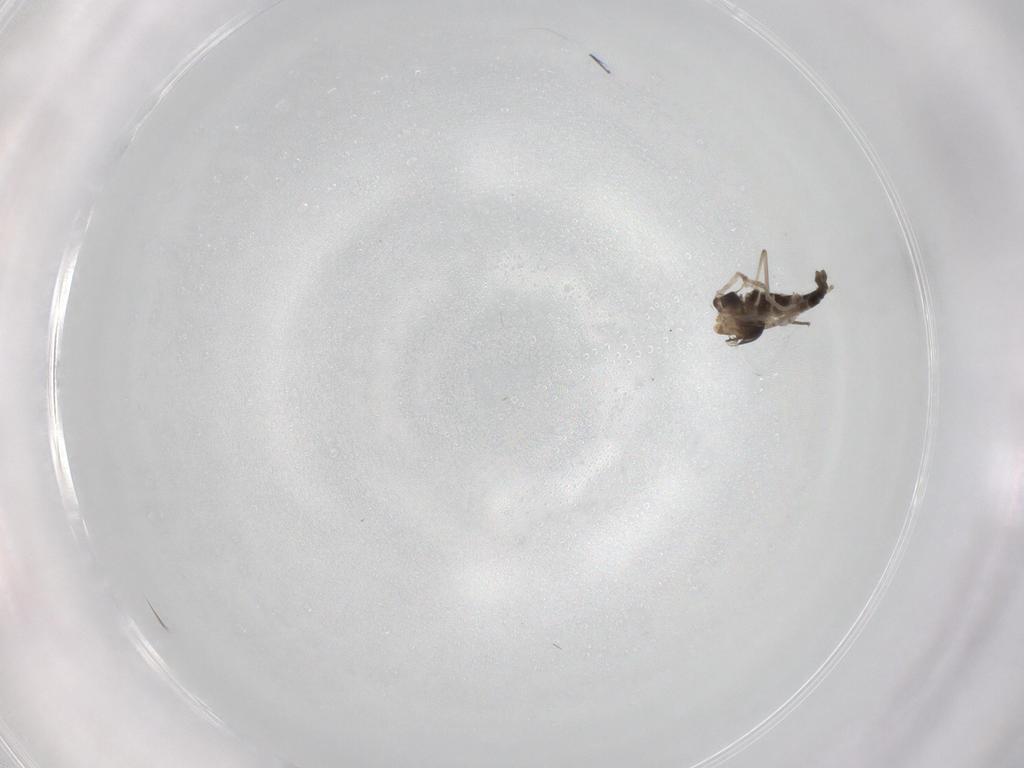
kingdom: Animalia
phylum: Arthropoda
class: Insecta
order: Diptera
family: Chironomidae
